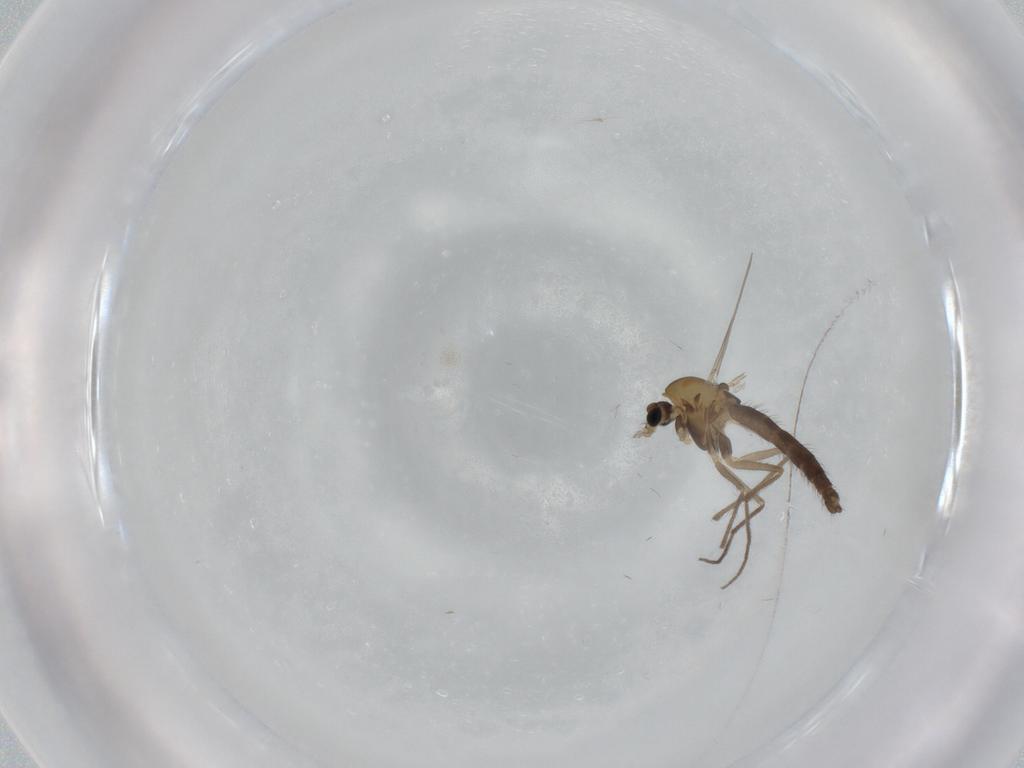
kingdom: Animalia
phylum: Arthropoda
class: Insecta
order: Diptera
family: Chironomidae
